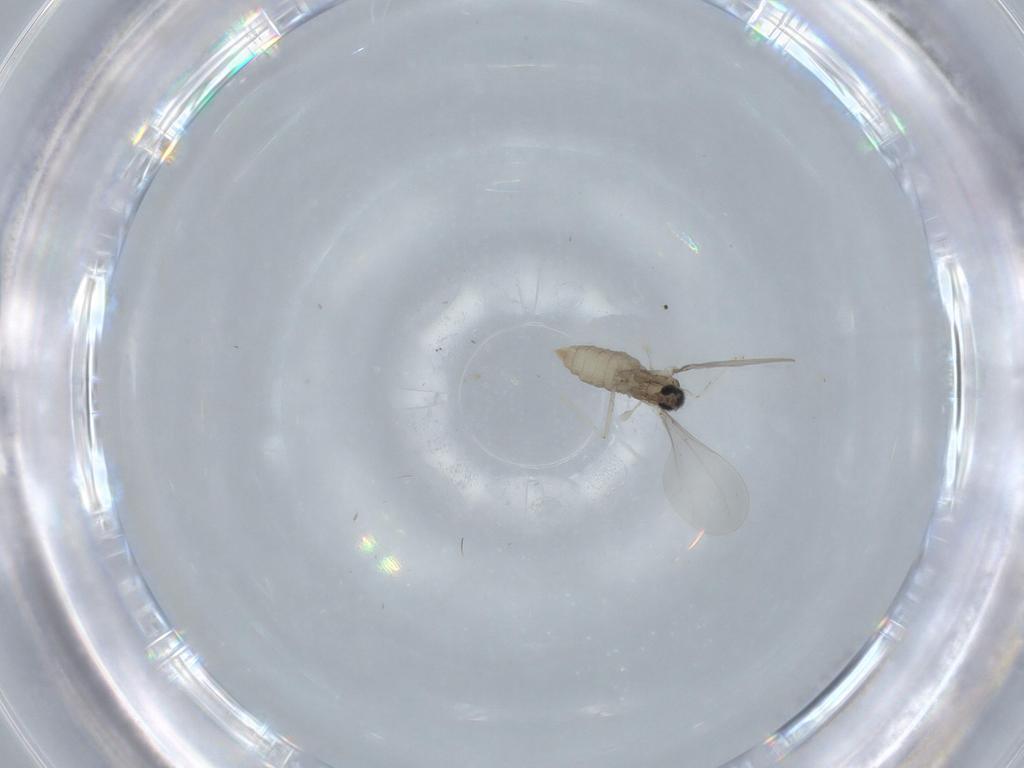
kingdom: Animalia
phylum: Arthropoda
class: Insecta
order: Diptera
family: Cecidomyiidae
